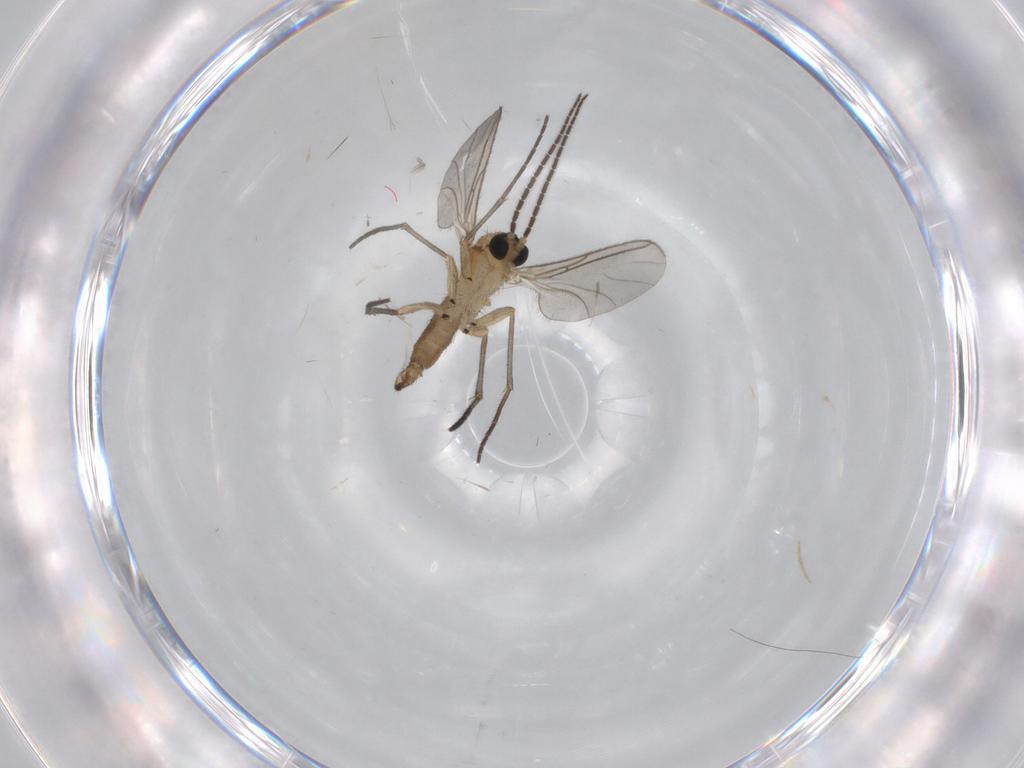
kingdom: Animalia
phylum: Arthropoda
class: Insecta
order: Diptera
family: Sciaridae
